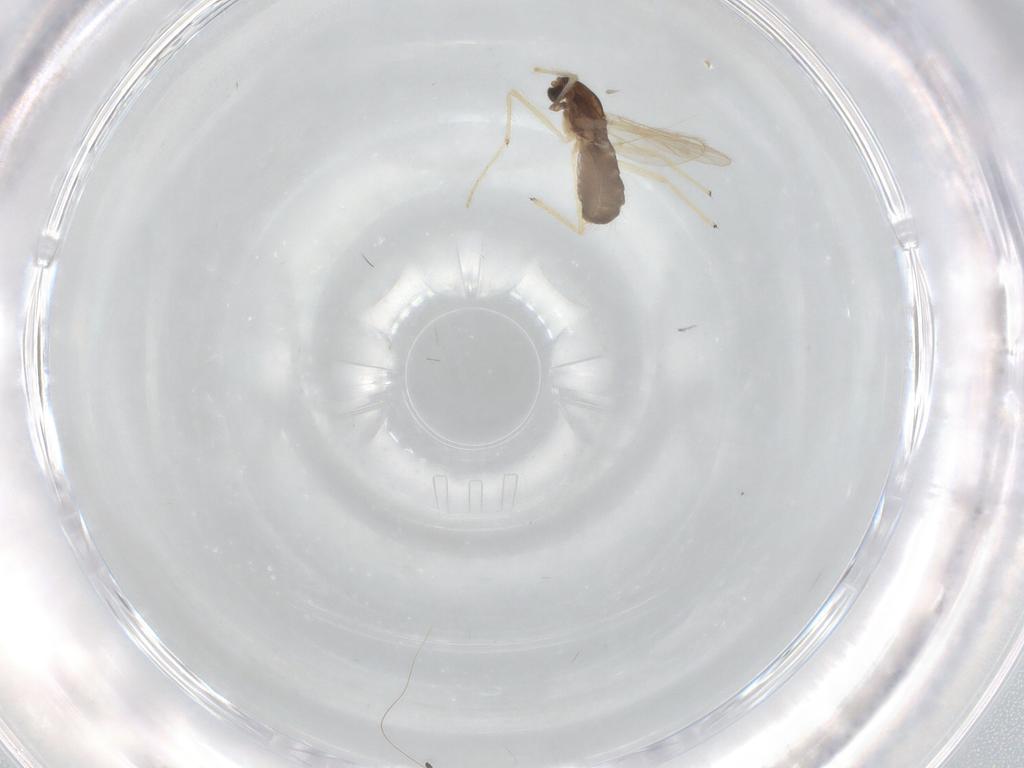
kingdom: Animalia
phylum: Arthropoda
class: Insecta
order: Diptera
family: Chironomidae
